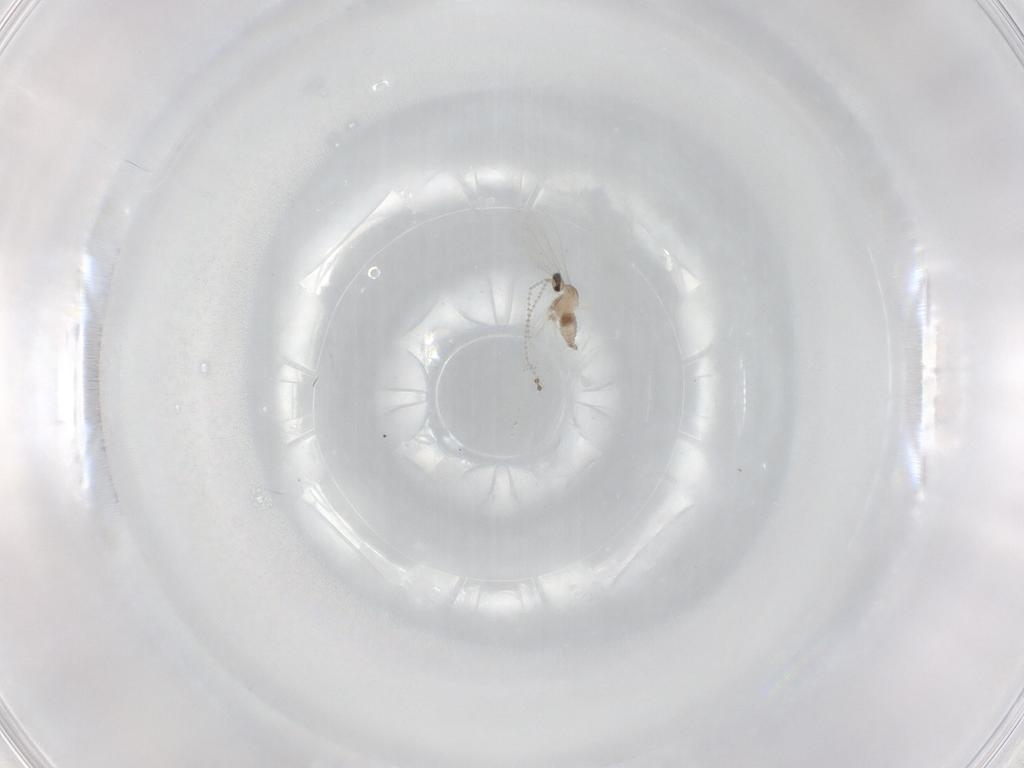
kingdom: Animalia
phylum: Arthropoda
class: Insecta
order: Diptera
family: Cecidomyiidae
